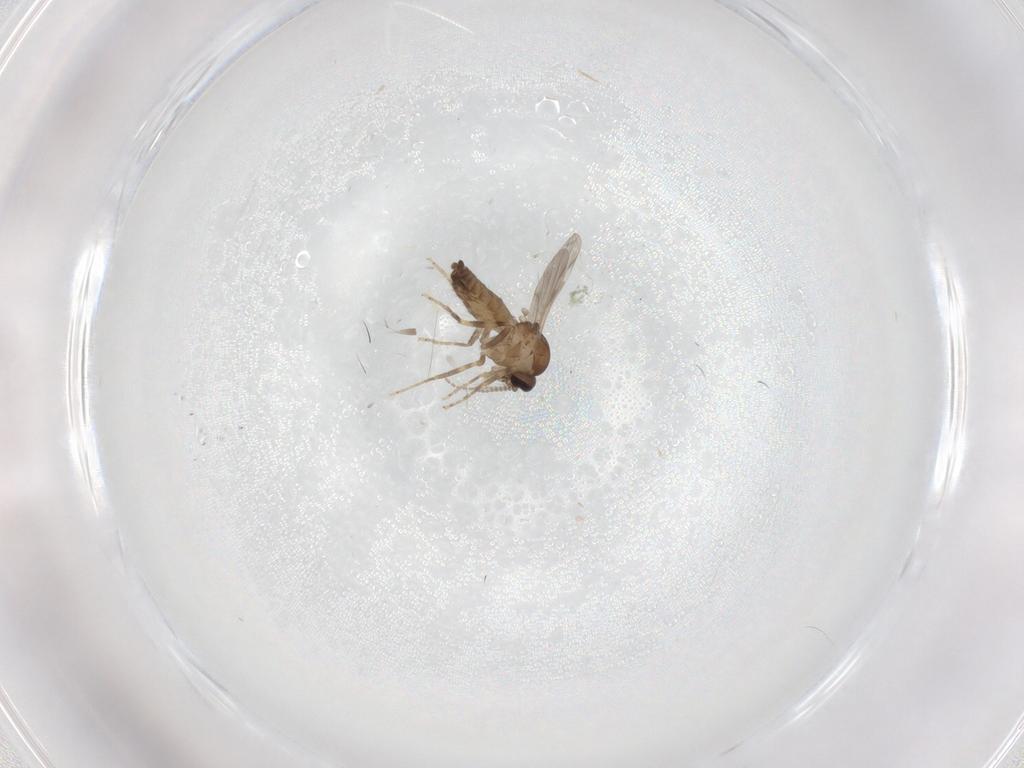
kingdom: Animalia
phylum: Arthropoda
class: Insecta
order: Diptera
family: Ceratopogonidae
